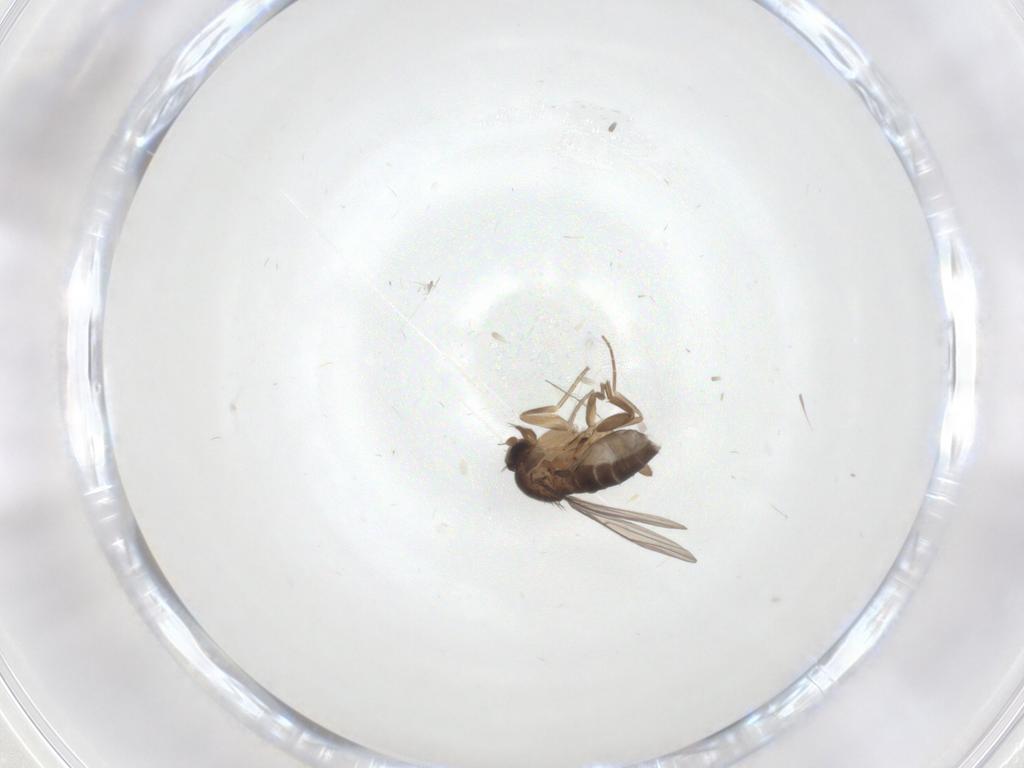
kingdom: Animalia
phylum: Arthropoda
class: Insecta
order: Diptera
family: Phoridae
